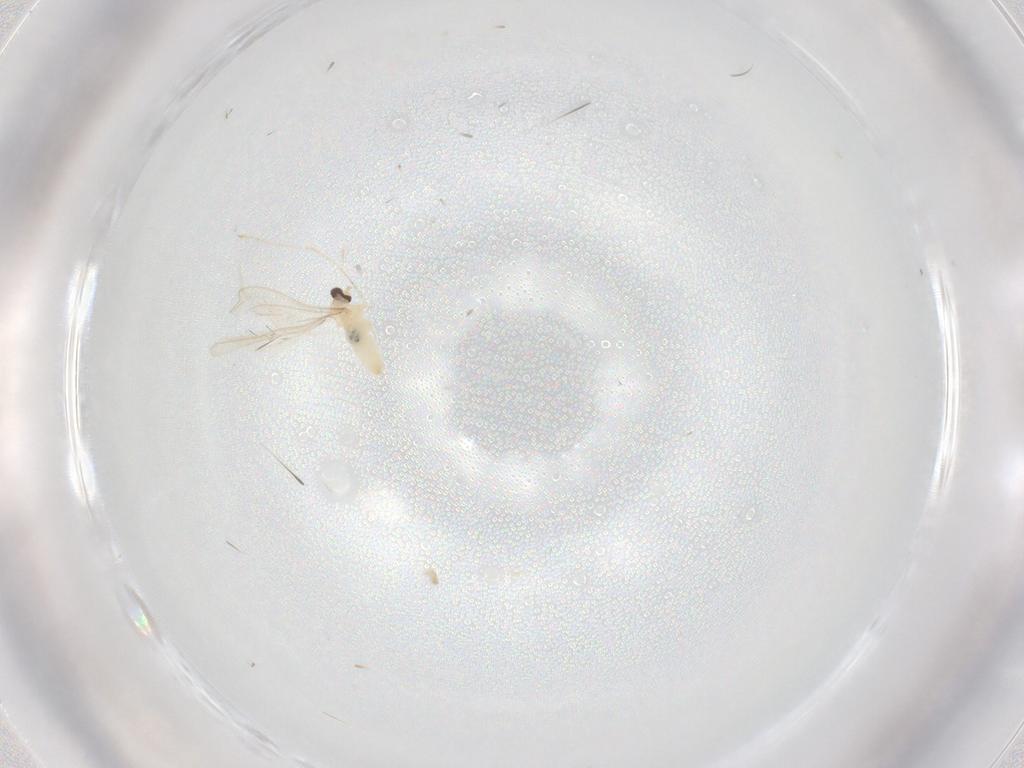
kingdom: Animalia
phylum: Arthropoda
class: Insecta
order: Diptera
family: Cecidomyiidae
